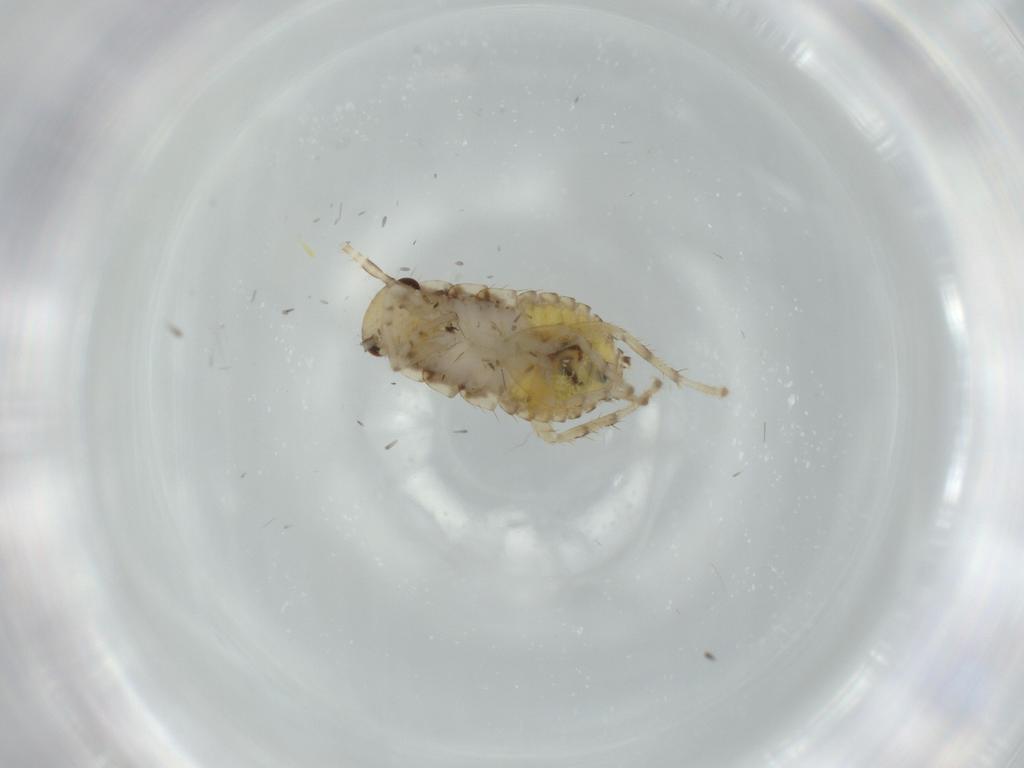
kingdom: Animalia
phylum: Arthropoda
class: Insecta
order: Blattodea
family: Ectobiidae
